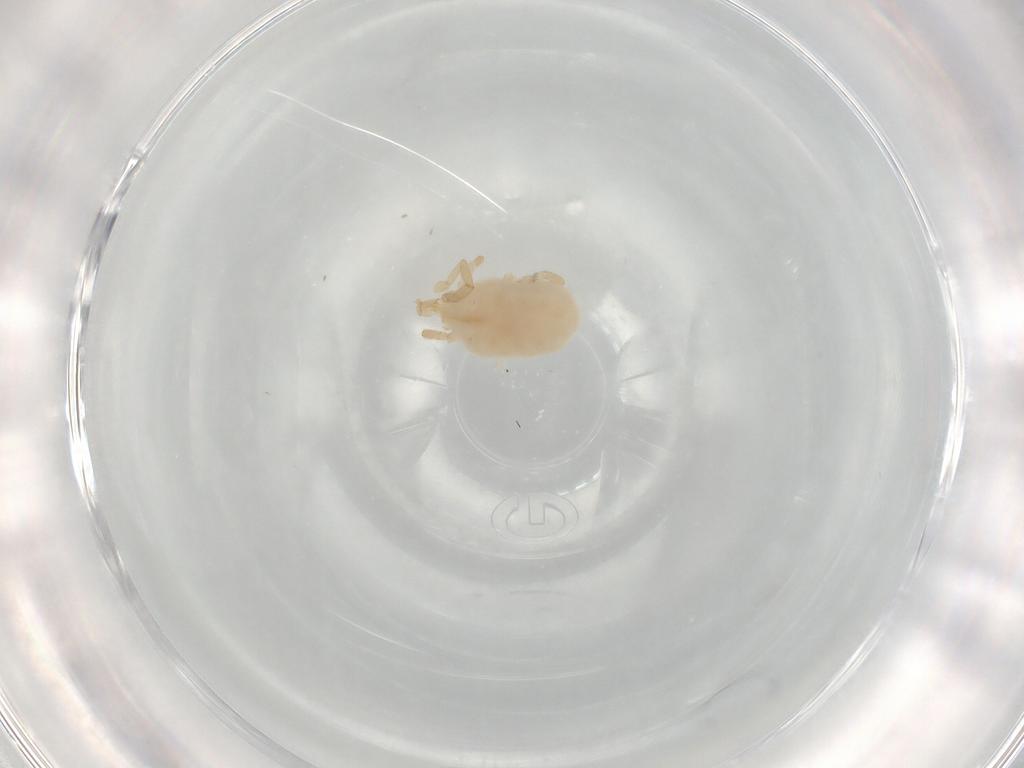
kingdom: Animalia
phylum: Arthropoda
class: Arachnida
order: Trombidiformes
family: Erythraeidae
